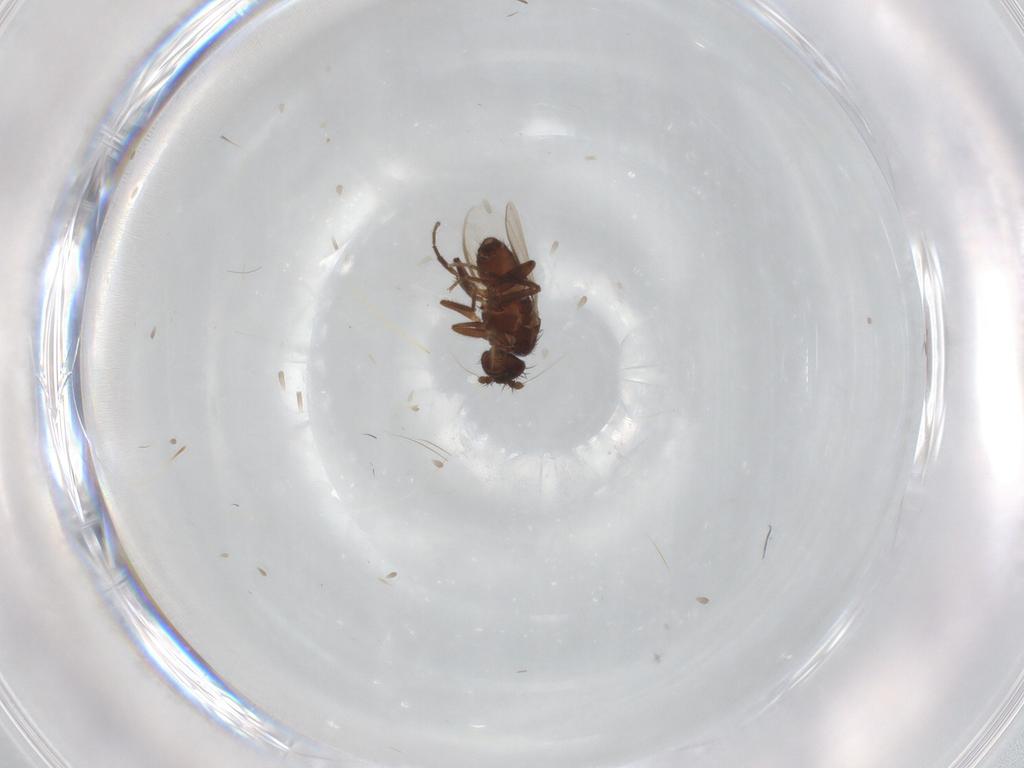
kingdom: Animalia
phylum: Arthropoda
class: Insecta
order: Diptera
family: Sphaeroceridae
